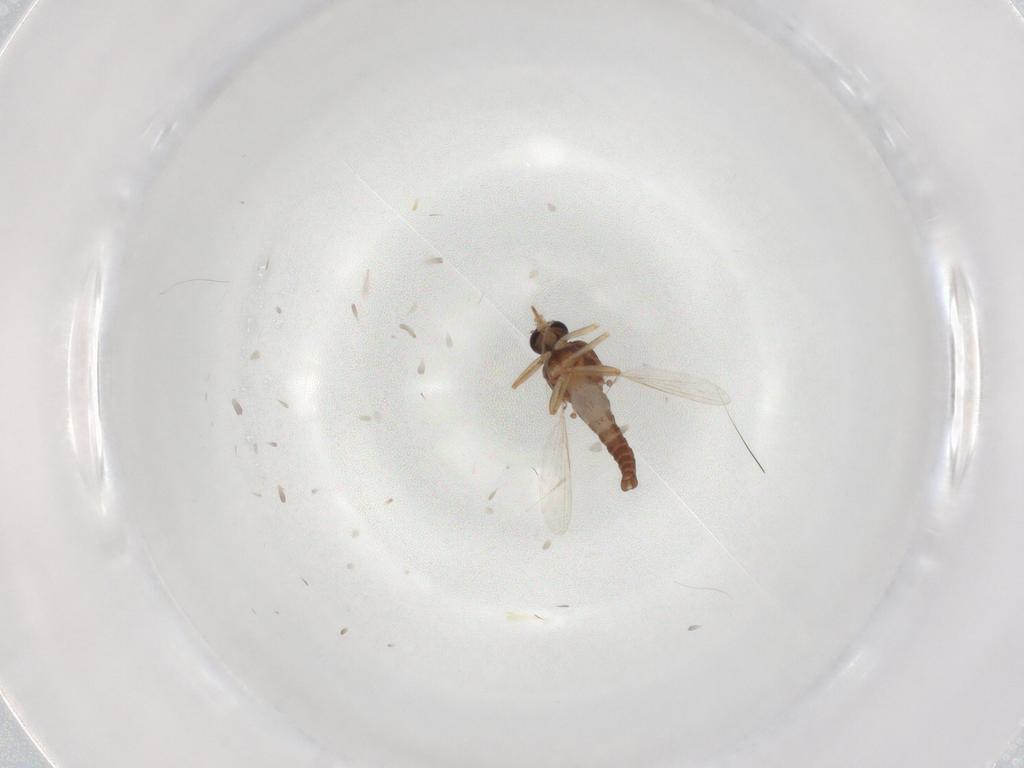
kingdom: Animalia
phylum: Arthropoda
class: Insecta
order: Diptera
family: Ceratopogonidae
